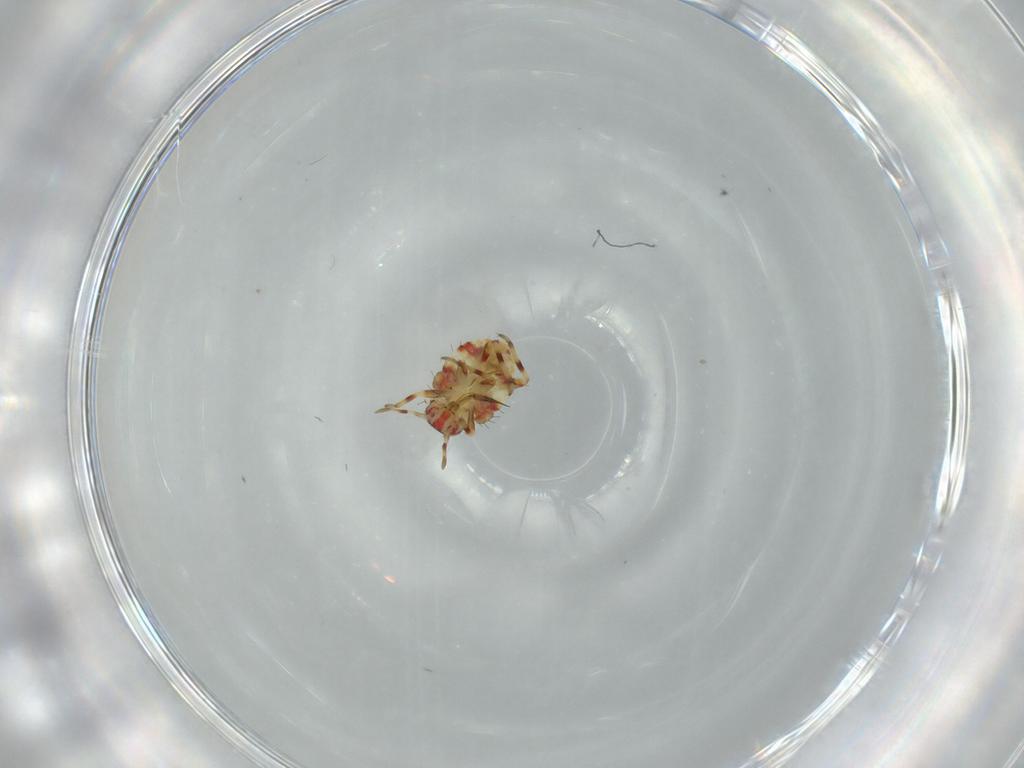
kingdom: Animalia
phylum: Arthropoda
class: Insecta
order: Hemiptera
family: Miridae
